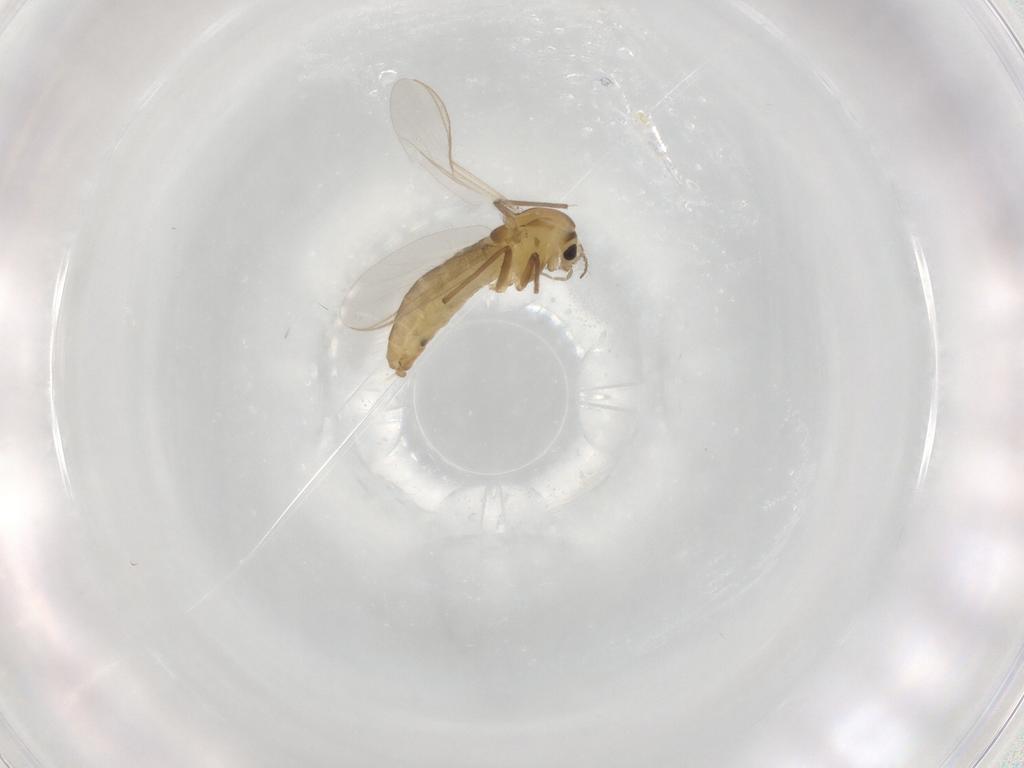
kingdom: Animalia
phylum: Arthropoda
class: Insecta
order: Diptera
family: Chironomidae
